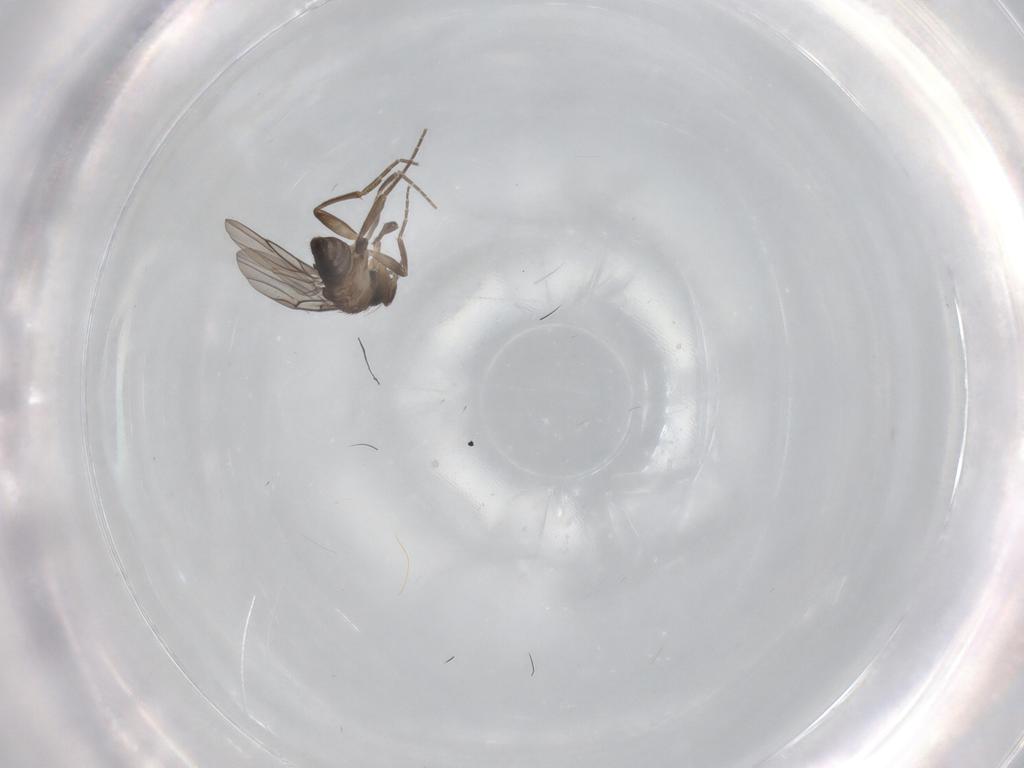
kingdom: Animalia
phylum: Arthropoda
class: Insecta
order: Diptera
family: Phoridae
